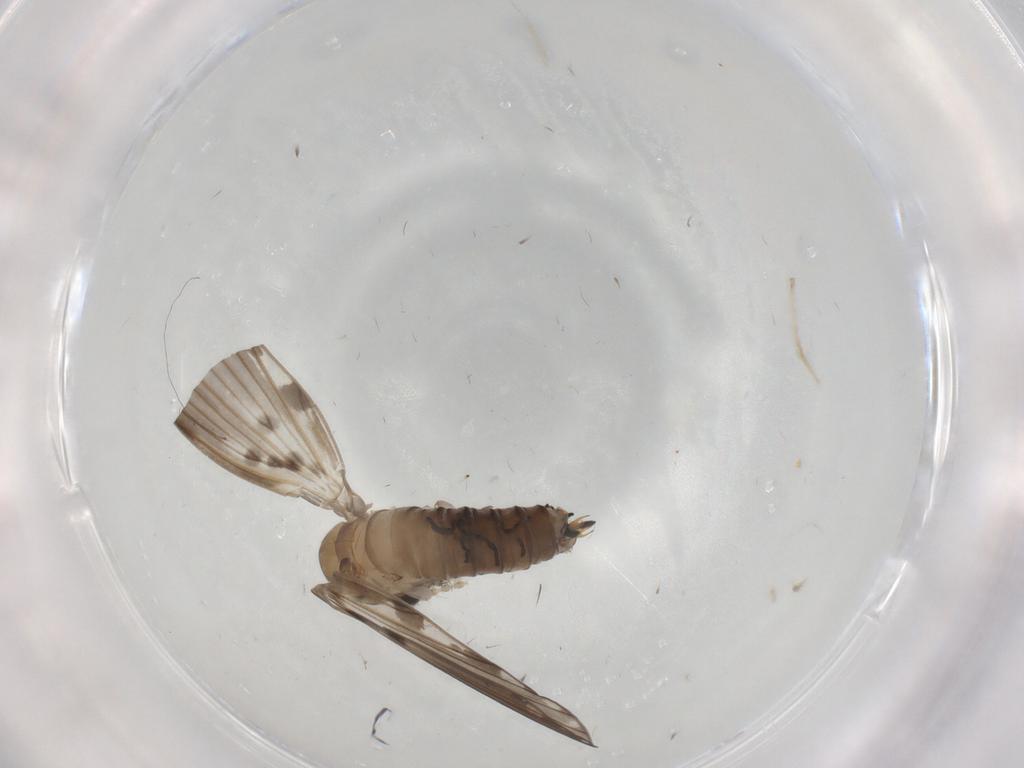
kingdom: Animalia
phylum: Arthropoda
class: Insecta
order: Diptera
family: Psychodidae
